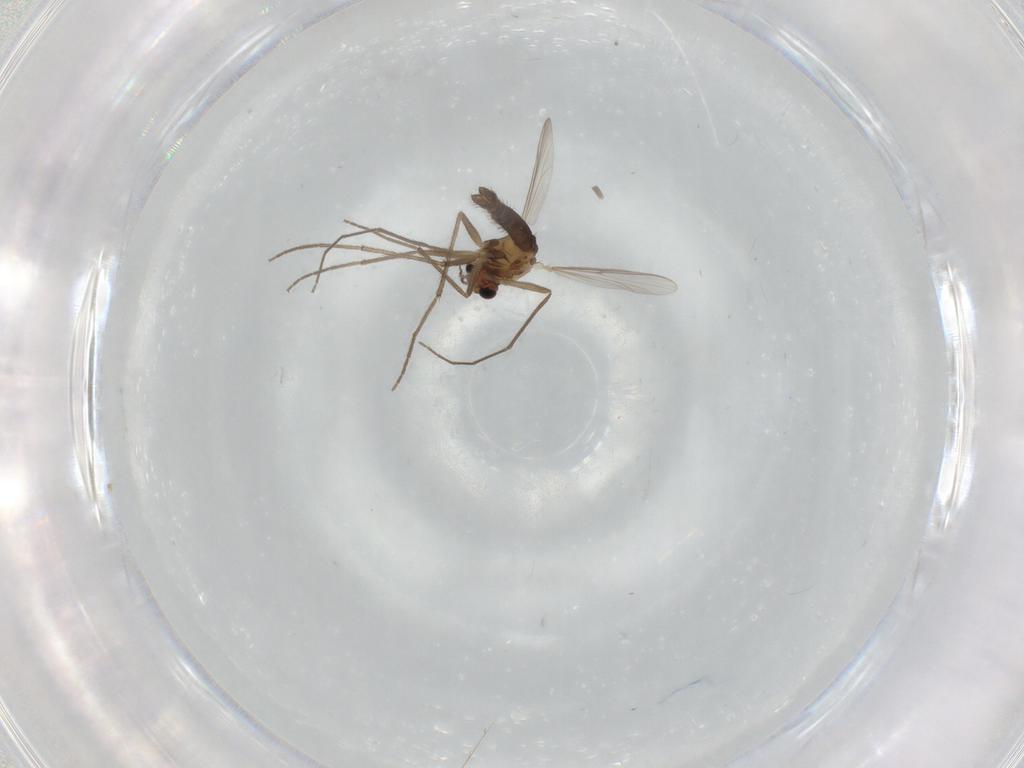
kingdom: Animalia
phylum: Arthropoda
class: Insecta
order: Diptera
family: Chironomidae
